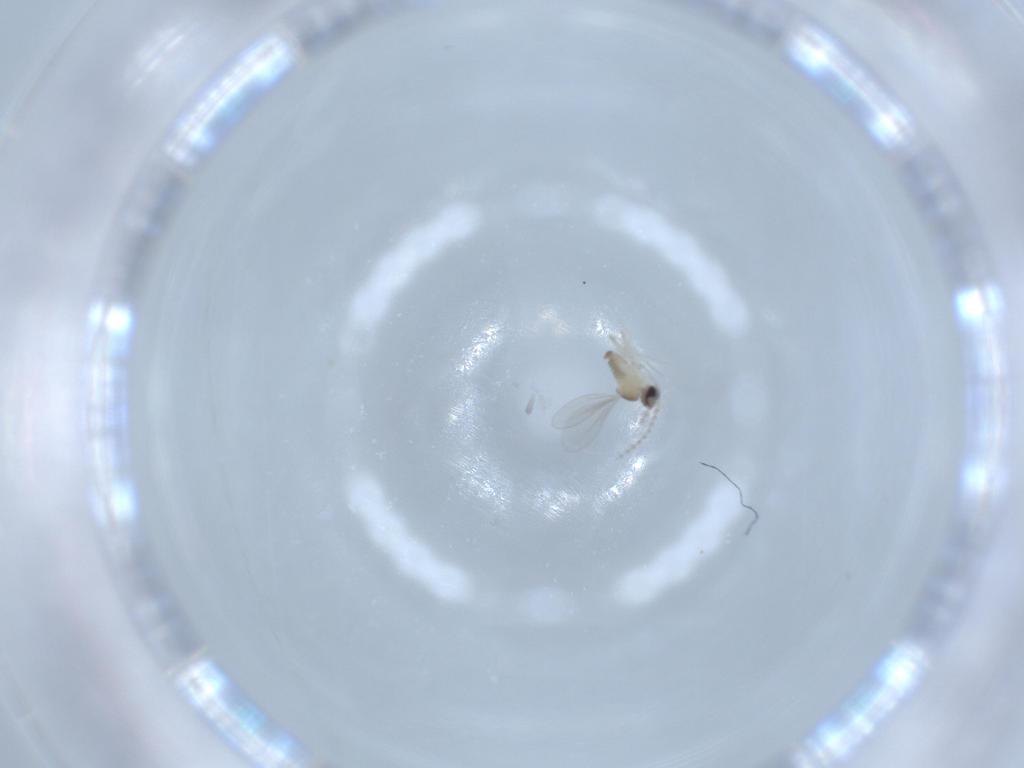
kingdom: Animalia
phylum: Arthropoda
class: Insecta
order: Diptera
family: Cecidomyiidae
